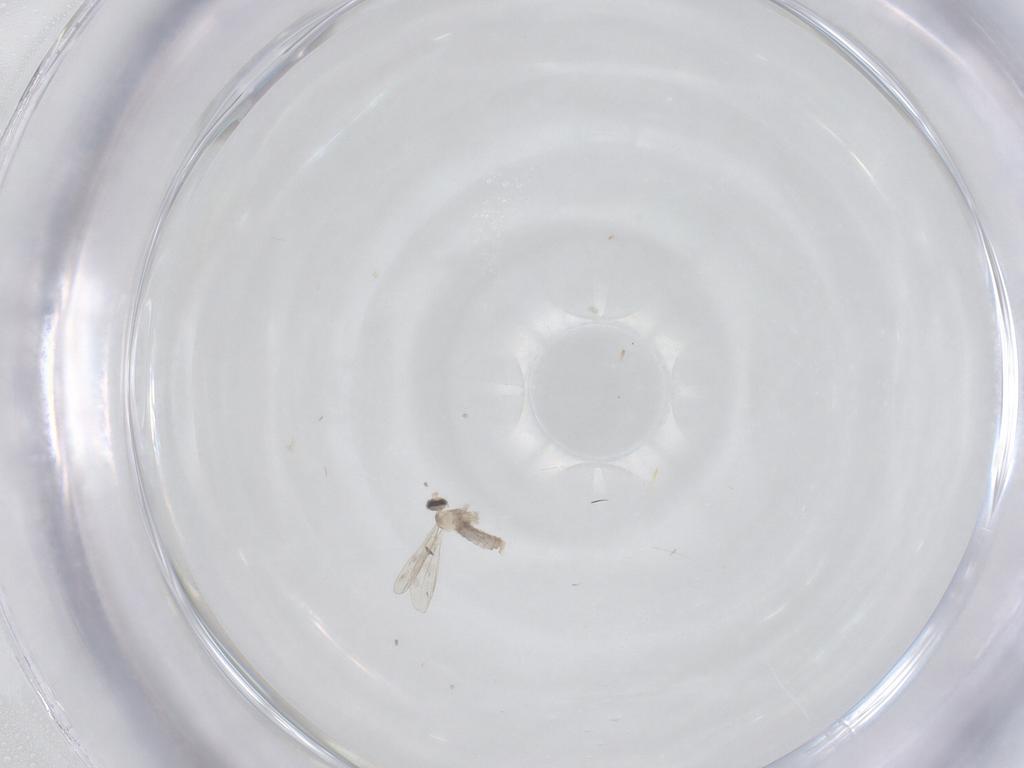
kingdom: Animalia
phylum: Arthropoda
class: Insecta
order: Diptera
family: Cecidomyiidae
